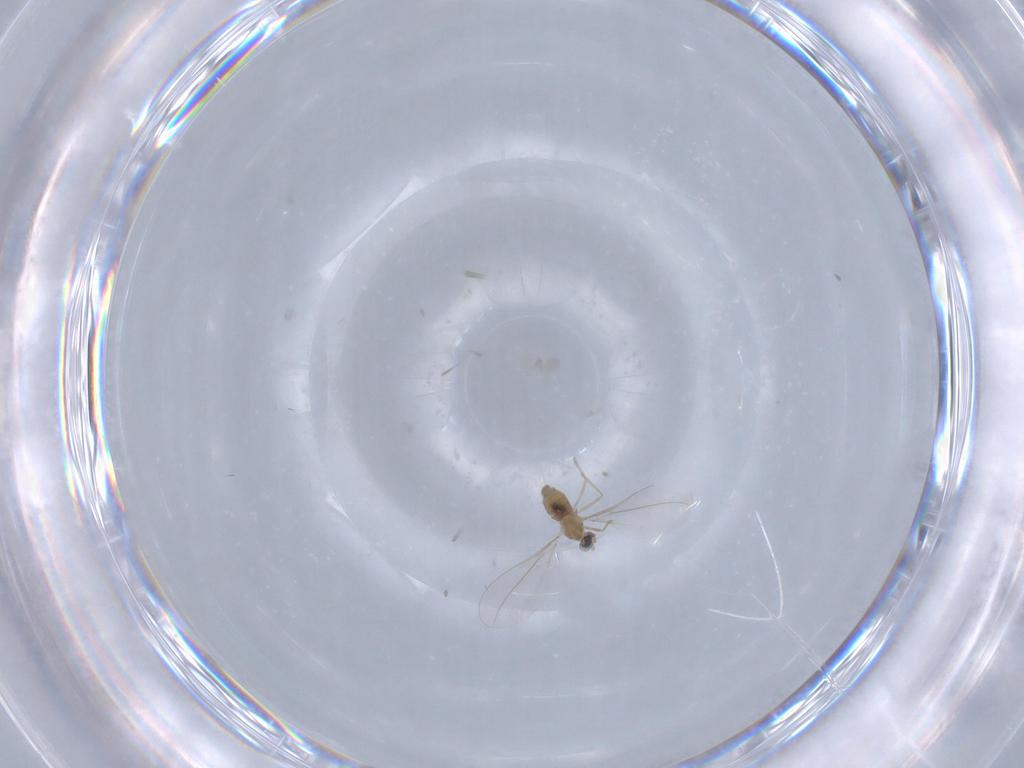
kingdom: Animalia
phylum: Arthropoda
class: Insecta
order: Diptera
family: Cecidomyiidae
